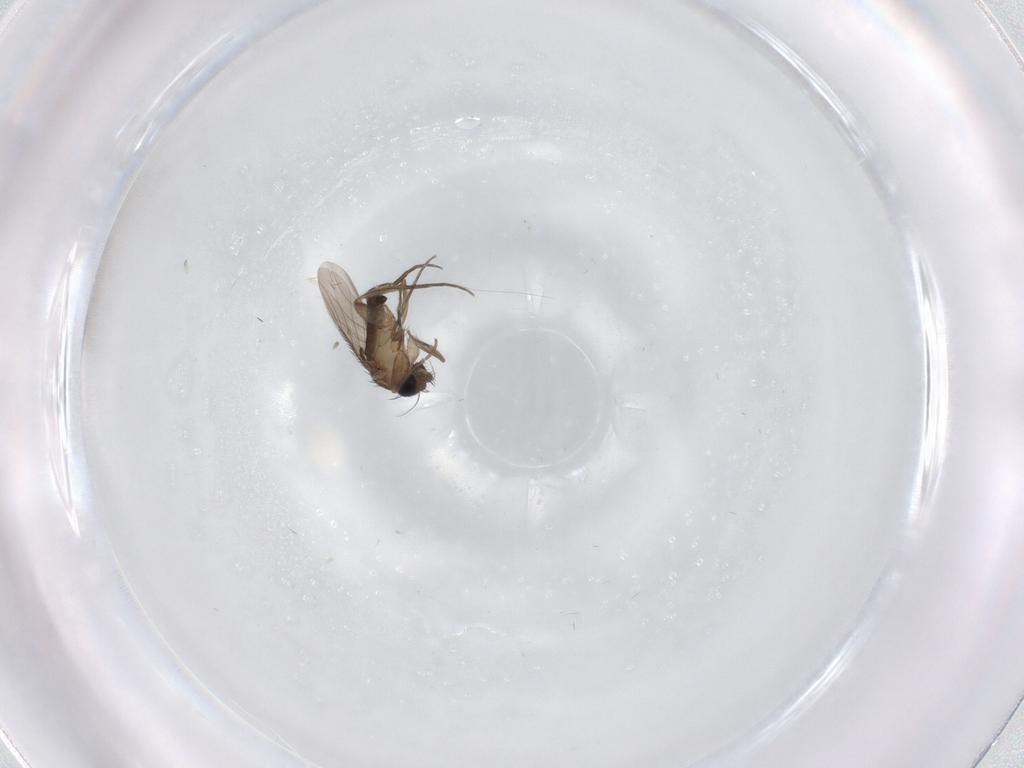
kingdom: Animalia
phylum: Arthropoda
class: Insecta
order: Diptera
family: Phoridae
